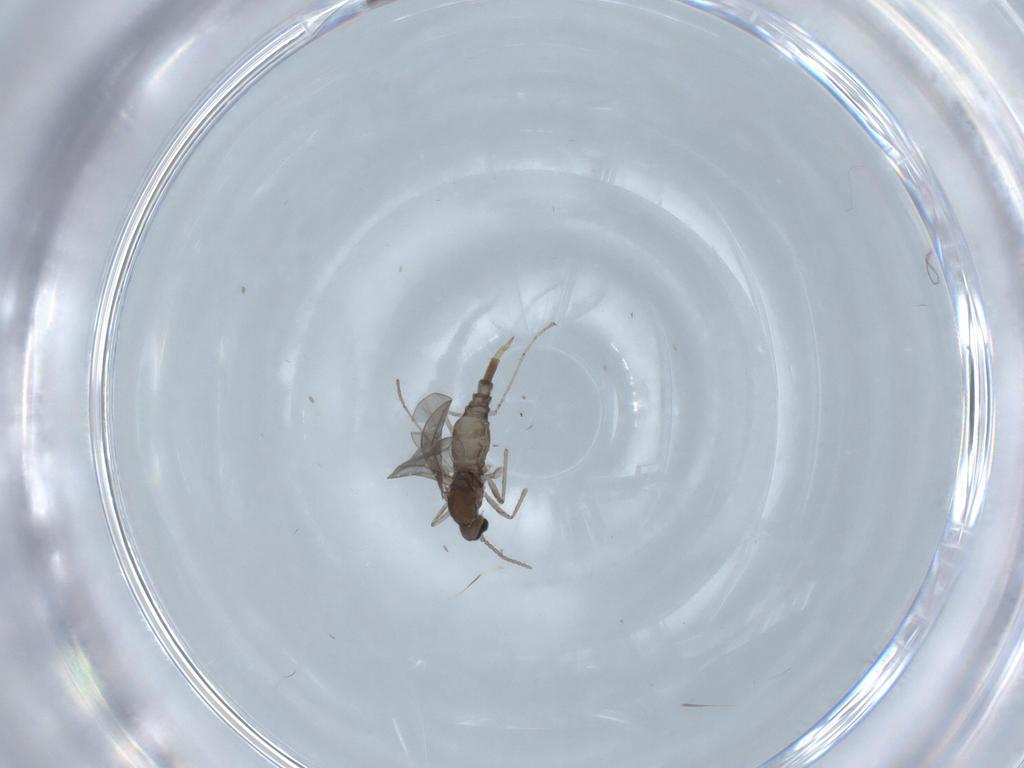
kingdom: Animalia
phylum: Arthropoda
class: Insecta
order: Diptera
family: Cecidomyiidae
